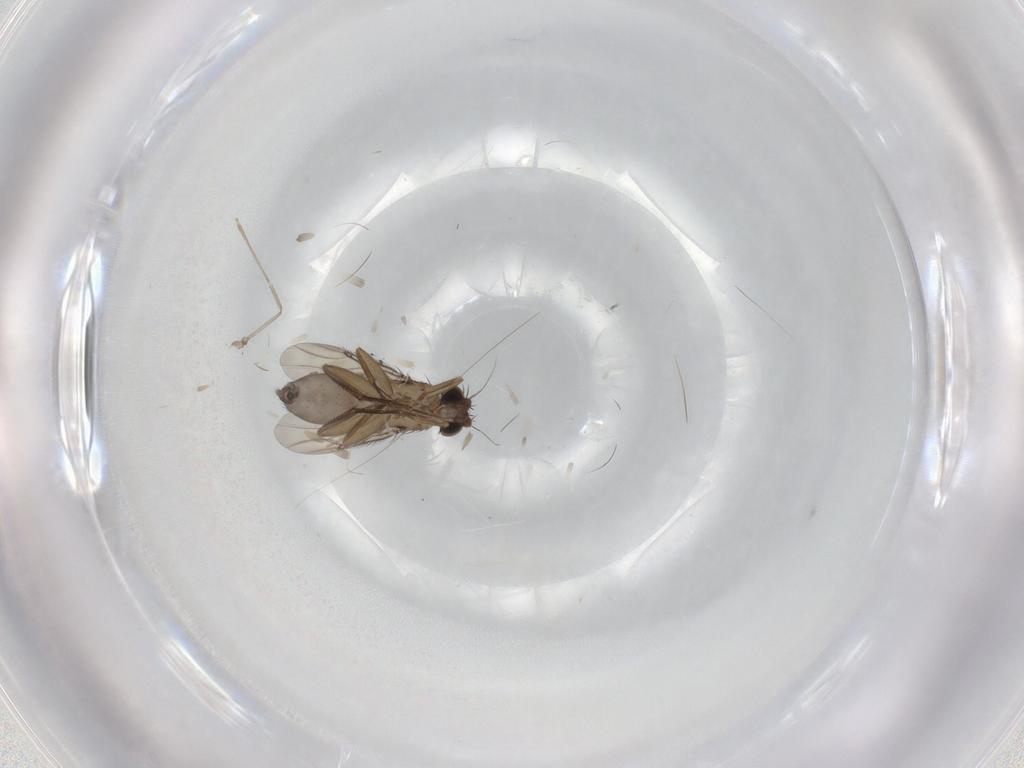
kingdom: Animalia
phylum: Arthropoda
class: Insecta
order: Diptera
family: Phoridae
